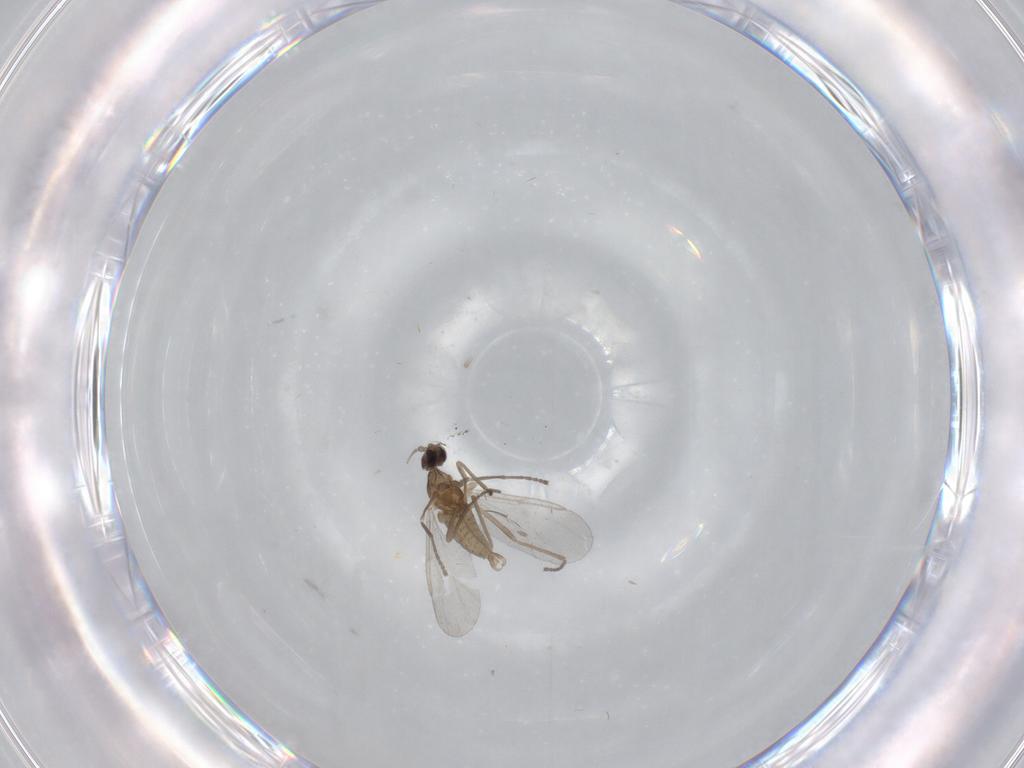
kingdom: Animalia
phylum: Arthropoda
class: Insecta
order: Diptera
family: Cecidomyiidae
